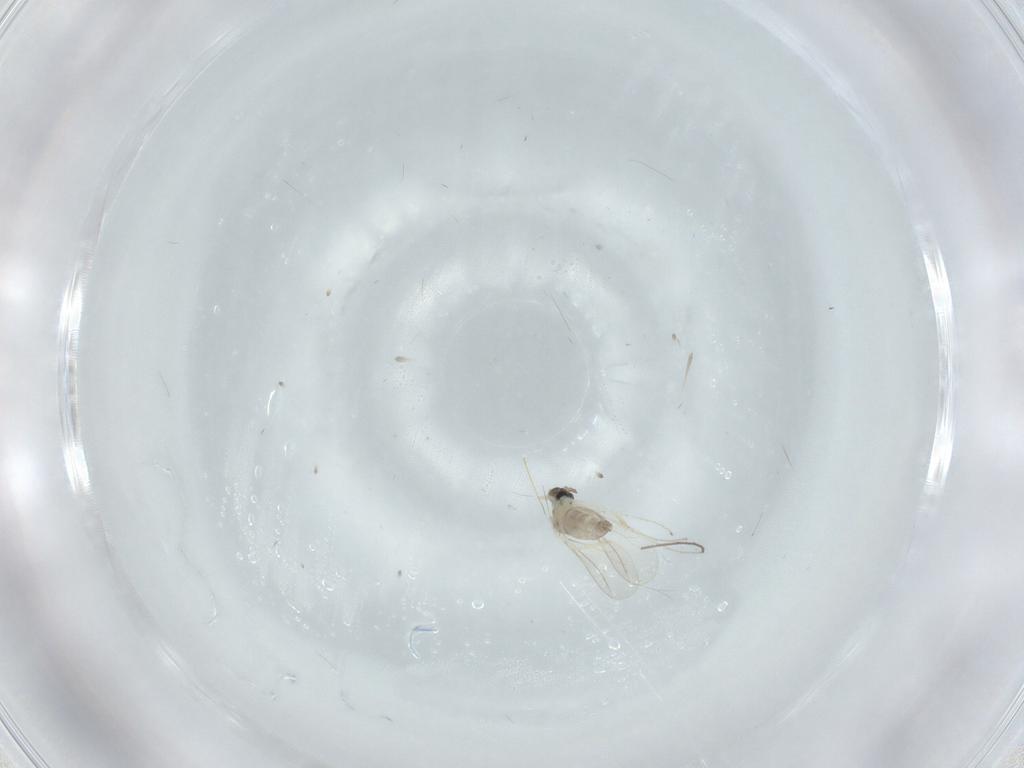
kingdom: Animalia
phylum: Arthropoda
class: Insecta
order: Diptera
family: Chironomidae
